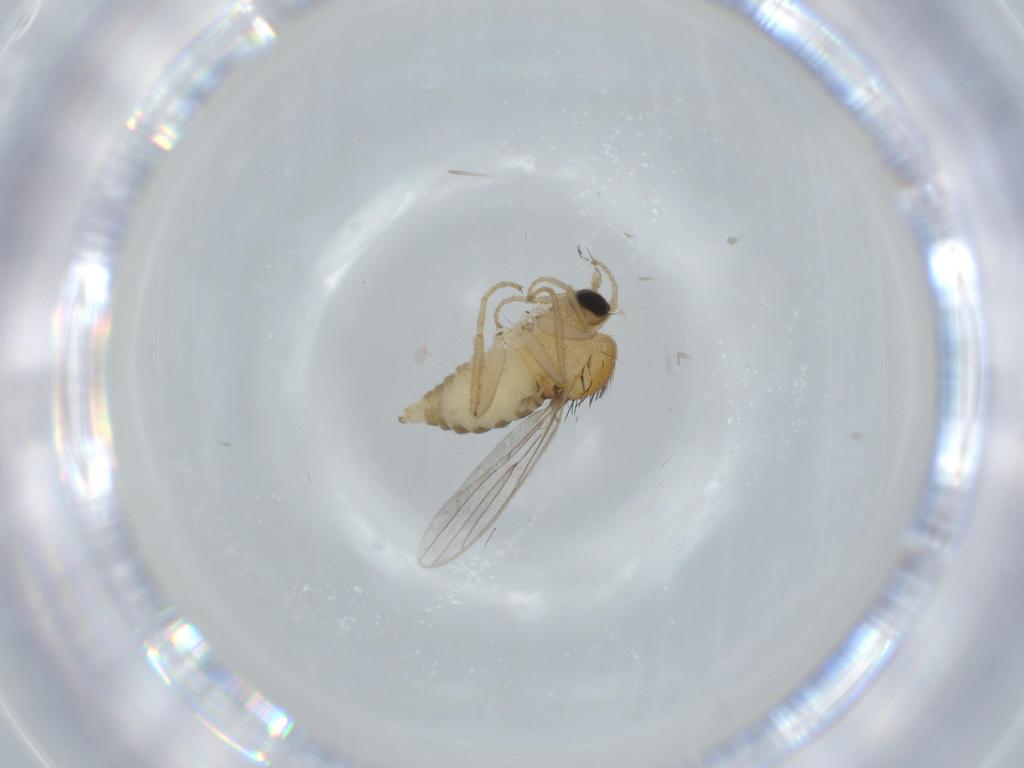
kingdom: Animalia
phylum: Arthropoda
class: Insecta
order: Diptera
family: Hybotidae
